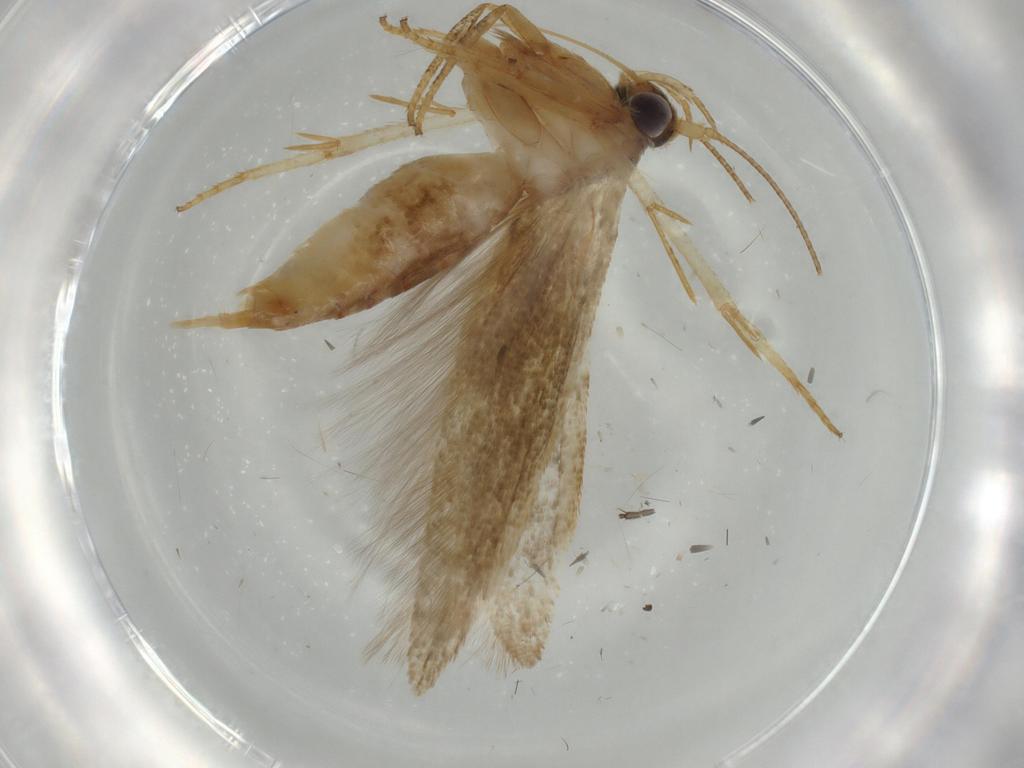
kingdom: Animalia
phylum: Arthropoda
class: Insecta
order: Lepidoptera
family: Blastobasidae
